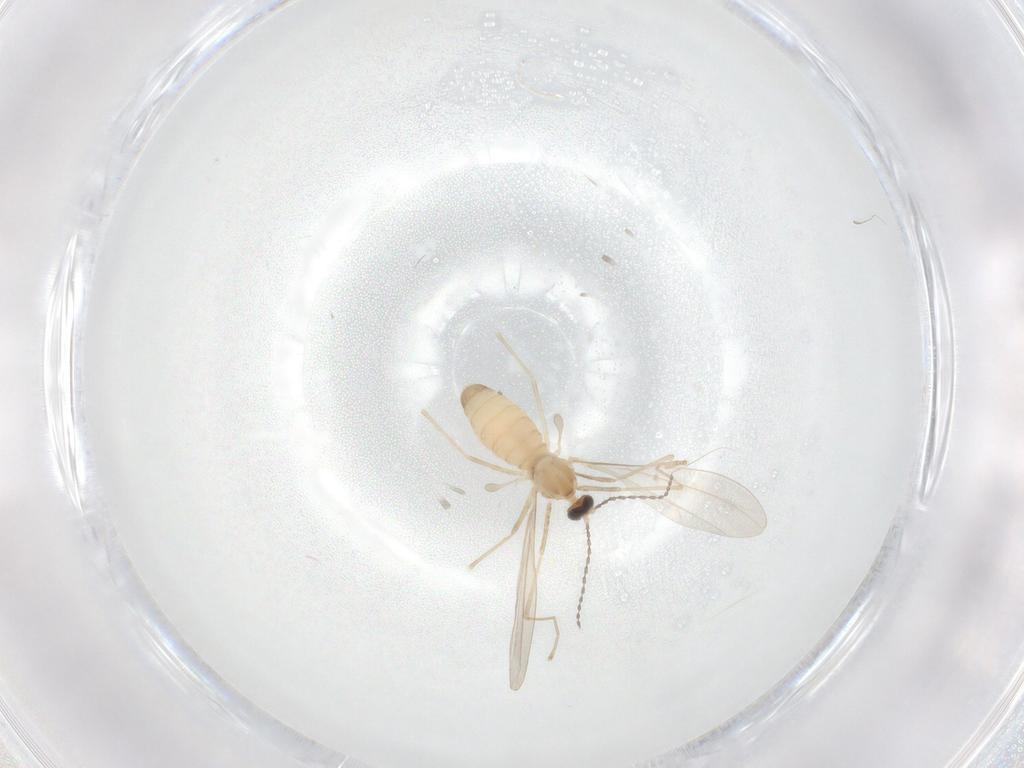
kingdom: Animalia
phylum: Arthropoda
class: Insecta
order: Diptera
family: Cecidomyiidae
